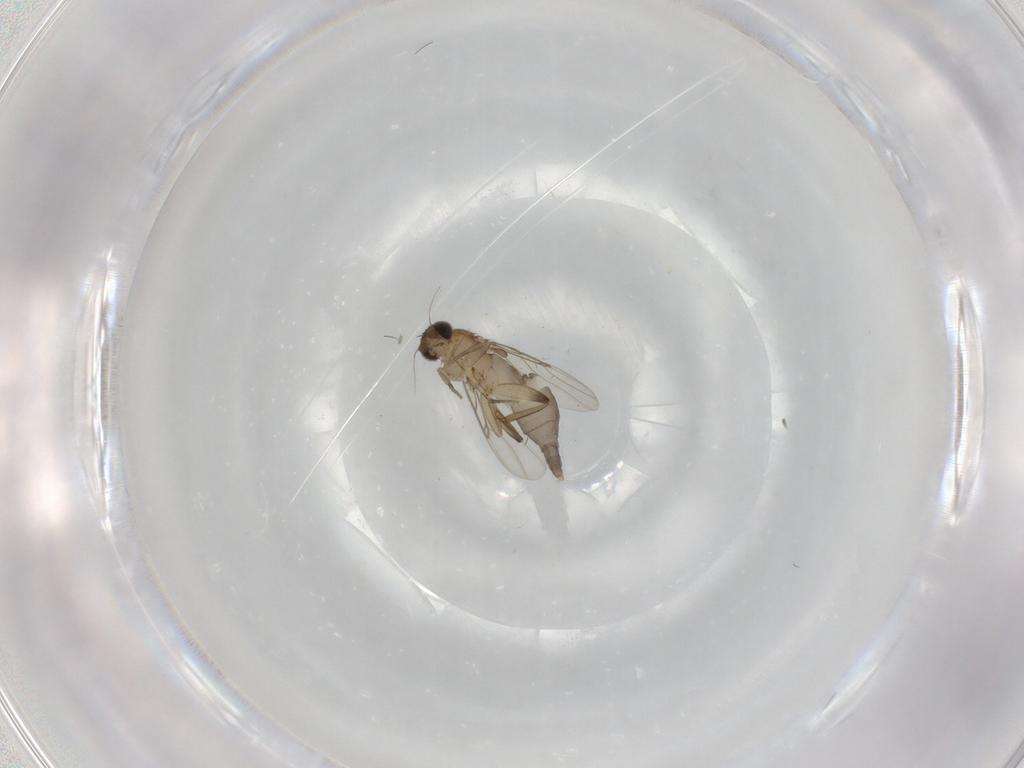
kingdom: Animalia
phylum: Arthropoda
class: Insecta
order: Diptera
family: Phoridae
